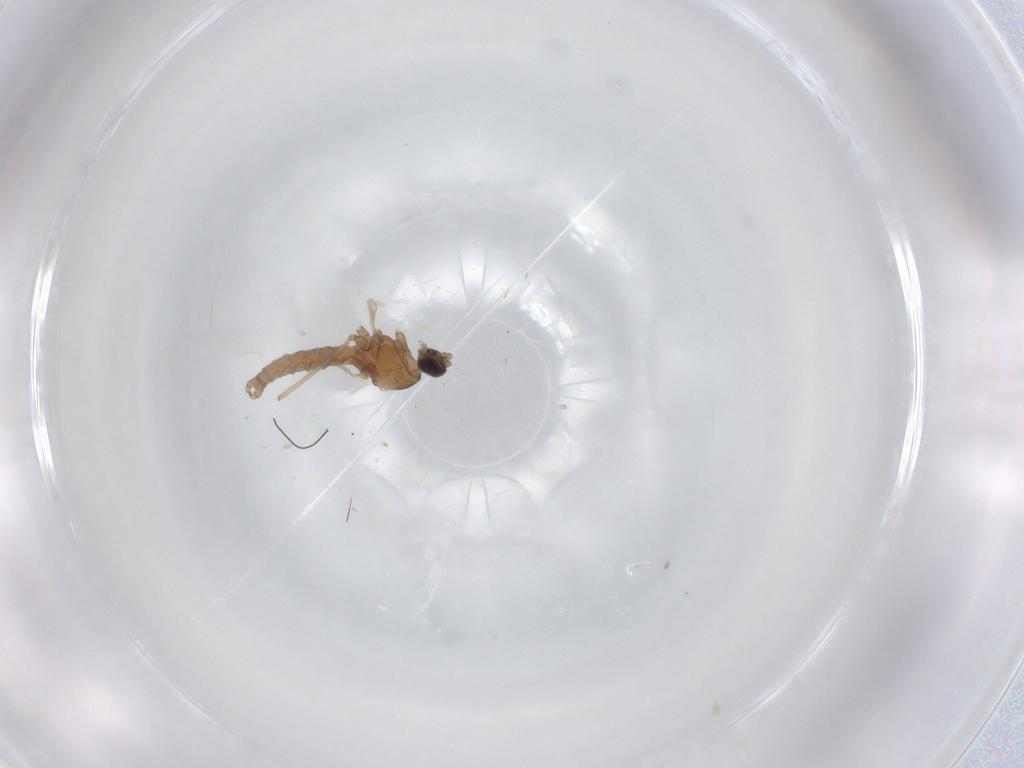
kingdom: Animalia
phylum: Arthropoda
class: Insecta
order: Diptera
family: Cecidomyiidae
